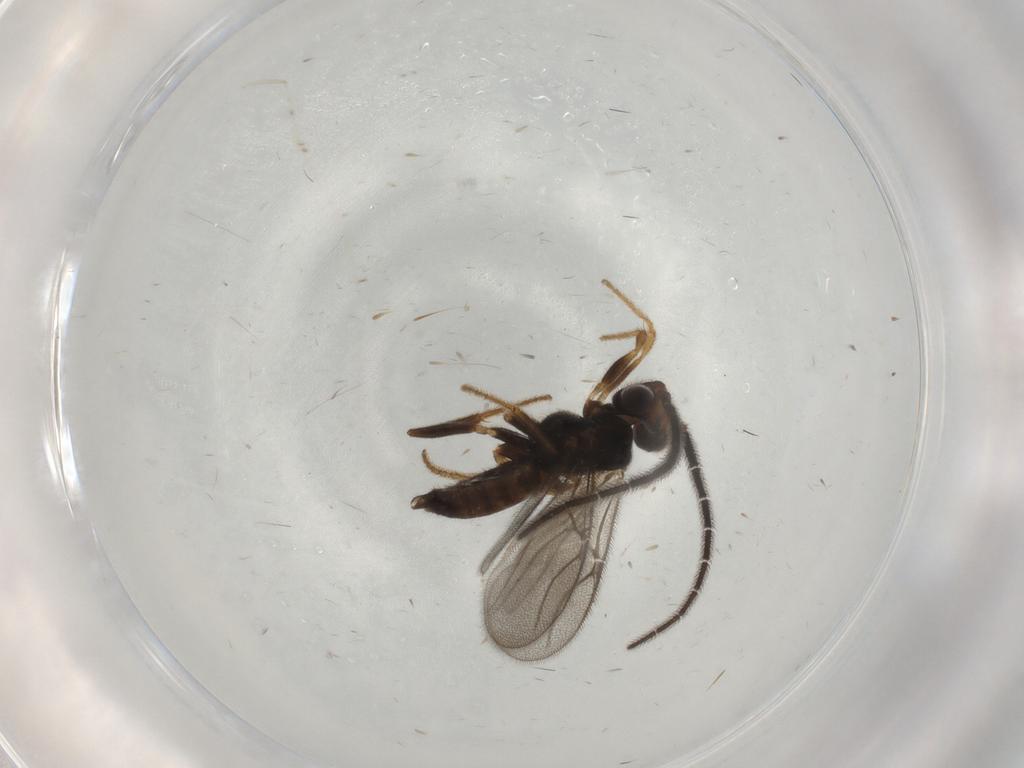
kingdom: Animalia
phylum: Arthropoda
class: Insecta
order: Hymenoptera
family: Dryinidae
